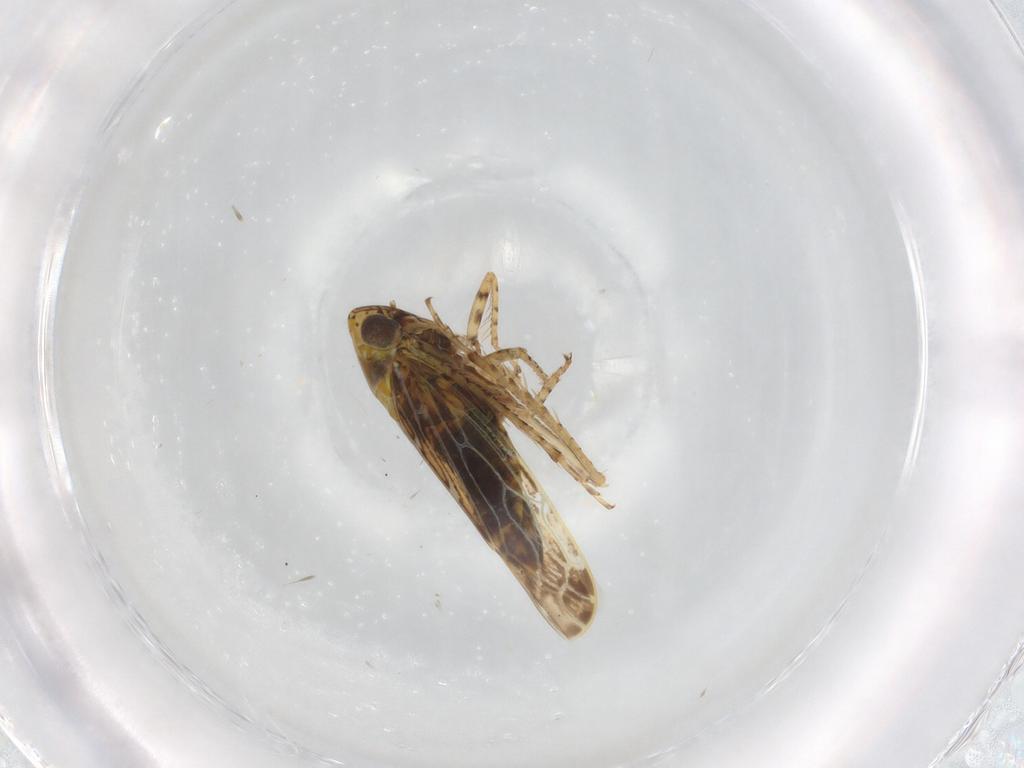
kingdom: Animalia
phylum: Arthropoda
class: Insecta
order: Hemiptera
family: Cicadellidae
